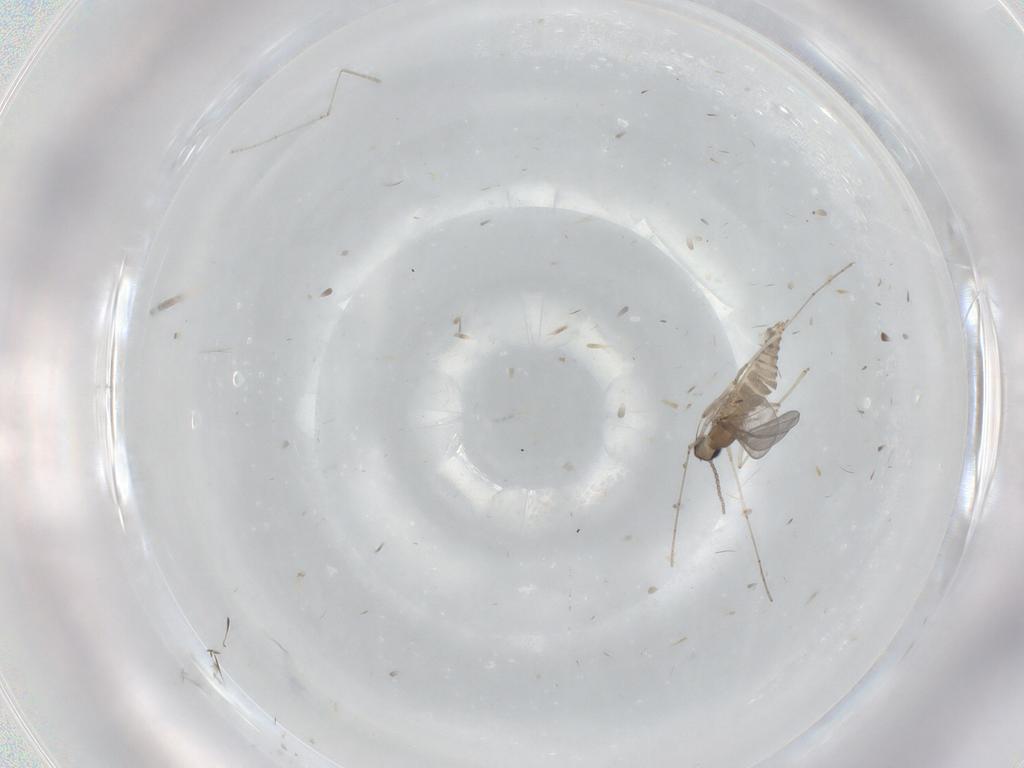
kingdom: Animalia
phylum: Arthropoda
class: Insecta
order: Diptera
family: Cecidomyiidae
